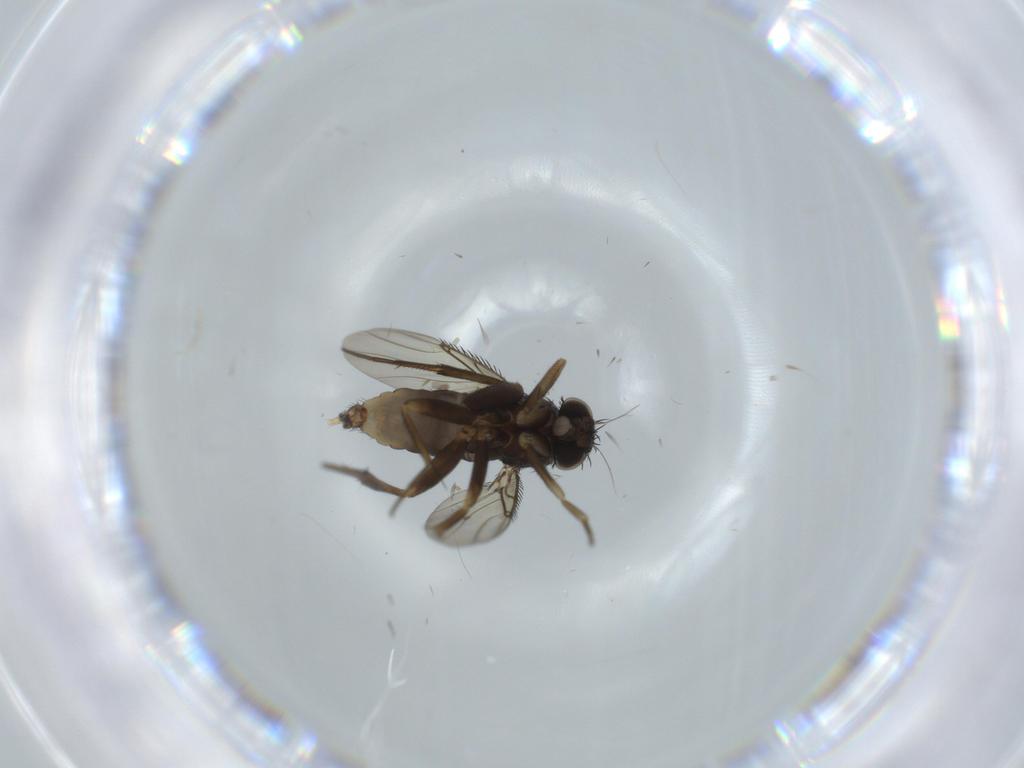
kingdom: Animalia
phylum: Arthropoda
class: Insecta
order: Diptera
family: Phoridae
